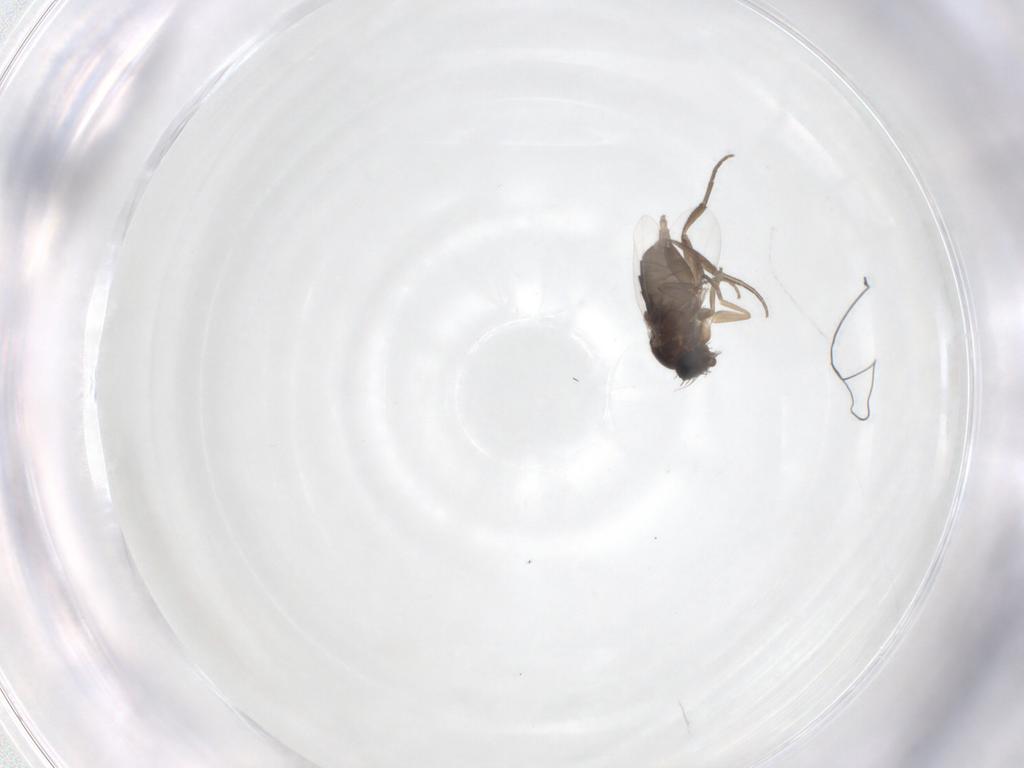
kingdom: Animalia
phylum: Arthropoda
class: Insecta
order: Diptera
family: Phoridae
